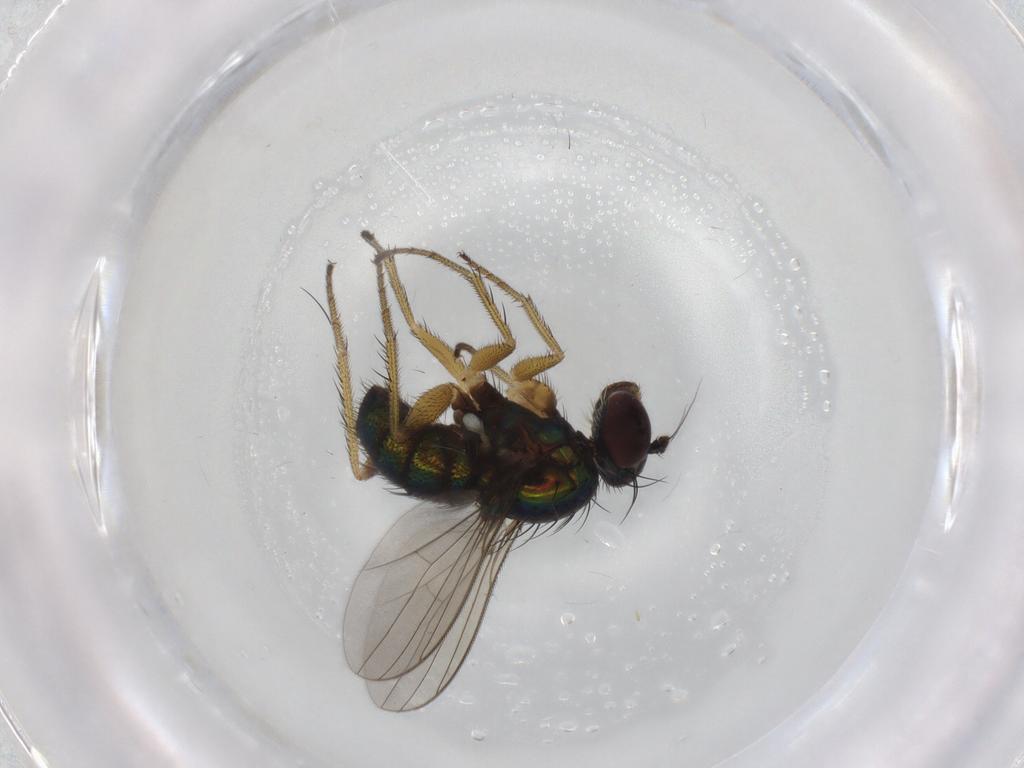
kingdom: Animalia
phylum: Arthropoda
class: Insecta
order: Diptera
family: Dolichopodidae
